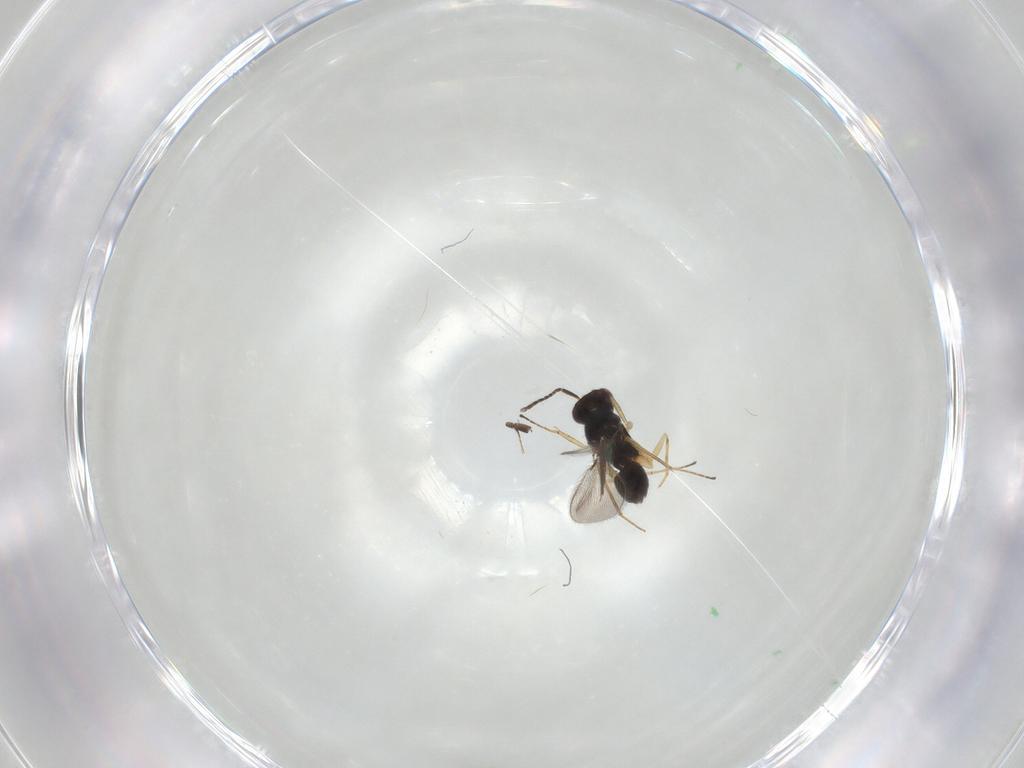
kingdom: Animalia
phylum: Arthropoda
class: Insecta
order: Hymenoptera
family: Mymaridae
